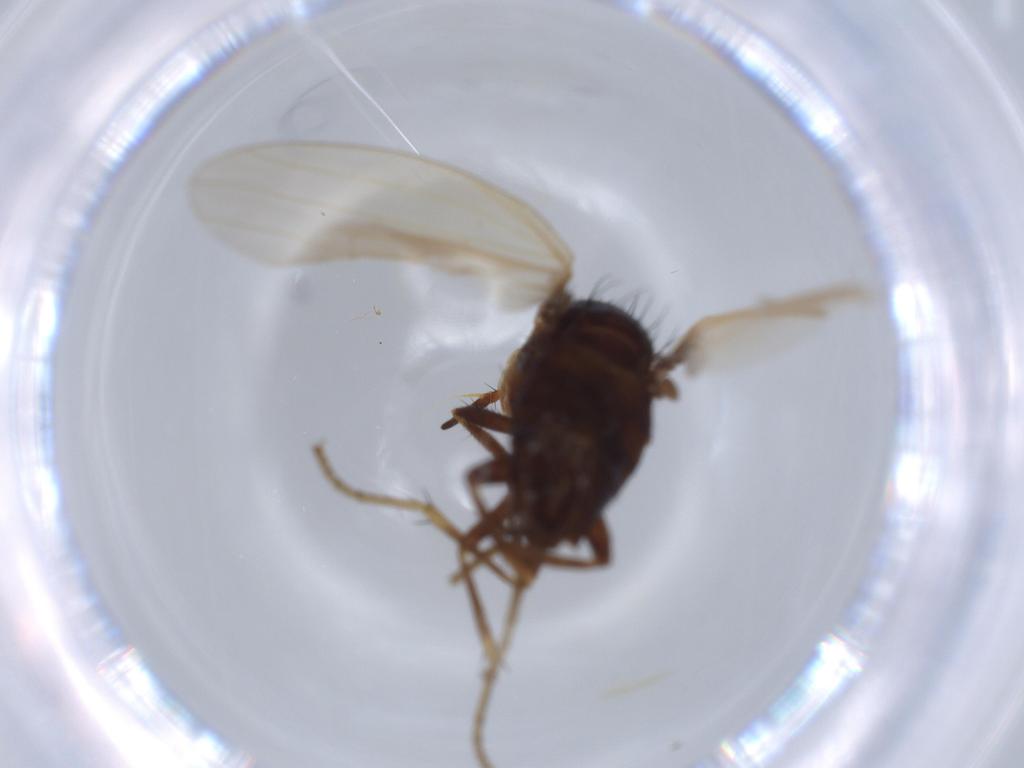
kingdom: Animalia
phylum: Arthropoda
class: Insecta
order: Diptera
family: Sciaridae
